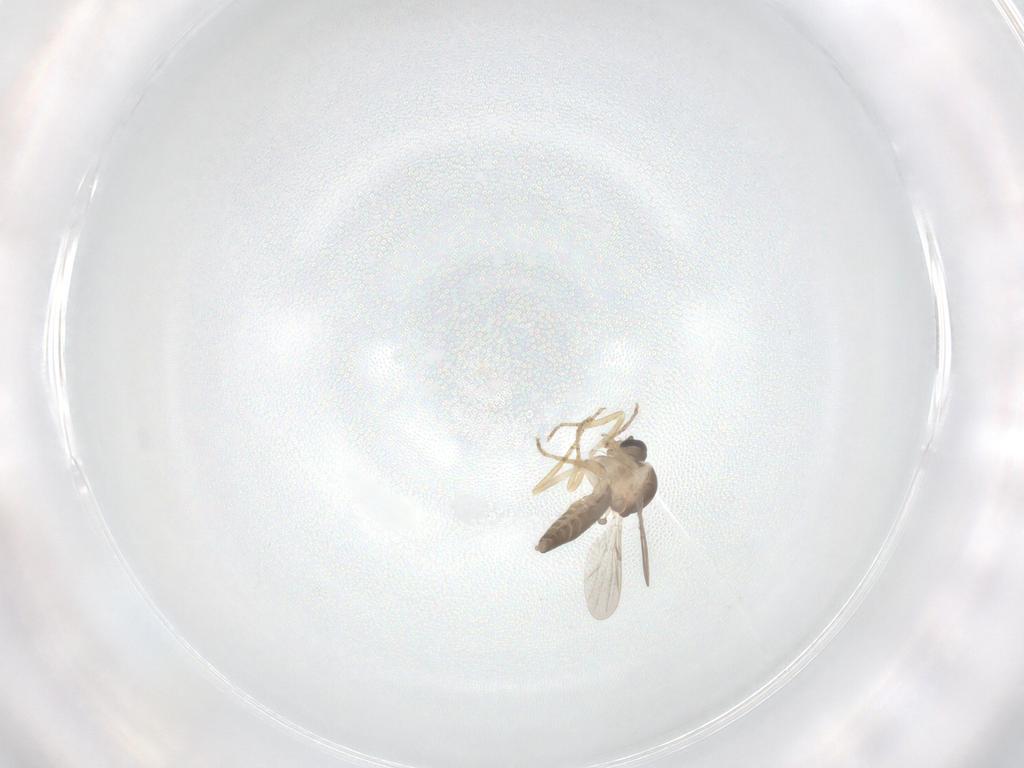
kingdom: Animalia
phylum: Arthropoda
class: Insecta
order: Diptera
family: Ceratopogonidae
